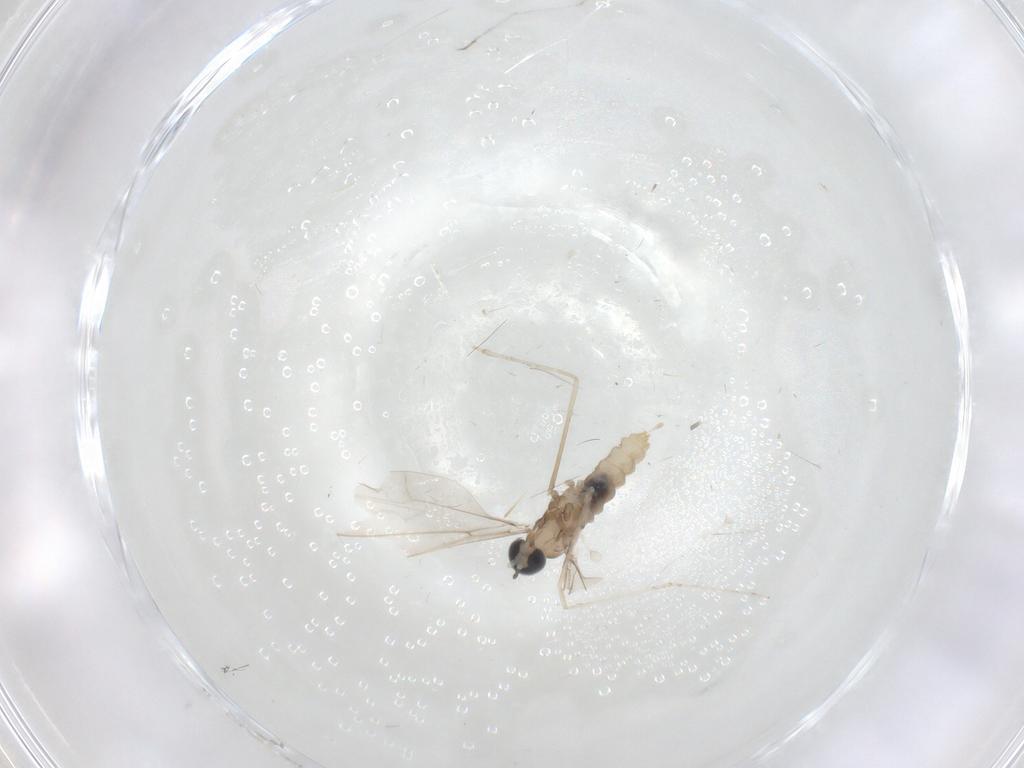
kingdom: Animalia
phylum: Arthropoda
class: Insecta
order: Diptera
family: Cecidomyiidae
